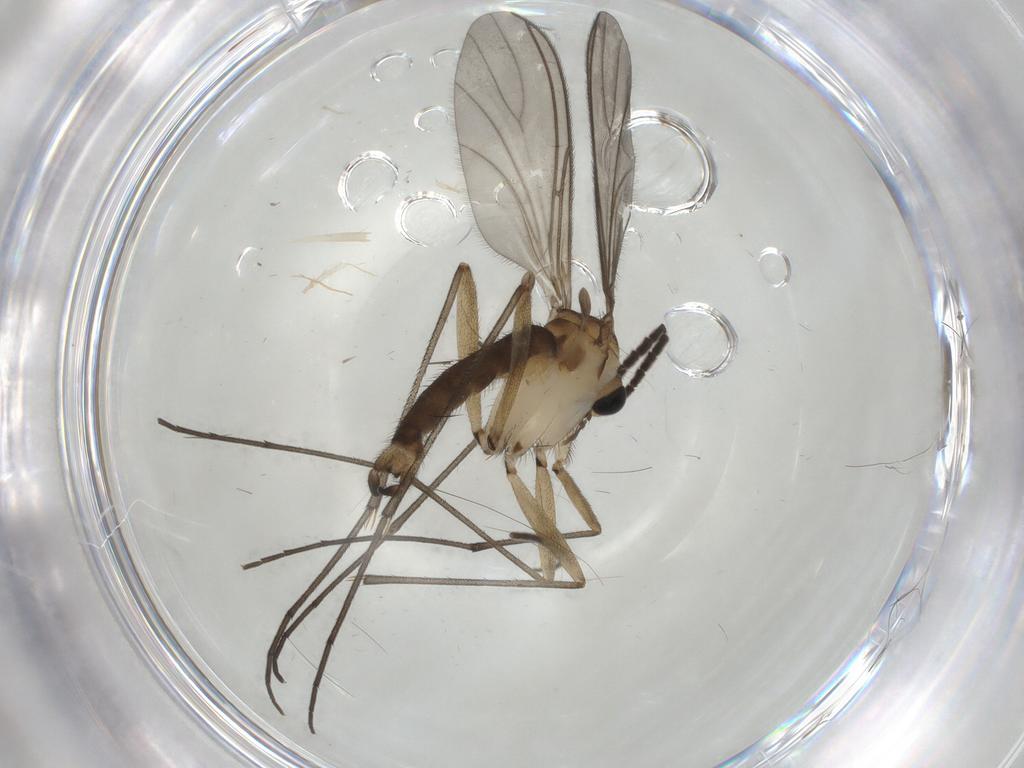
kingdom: Animalia
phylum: Arthropoda
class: Insecta
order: Diptera
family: Sciaridae
